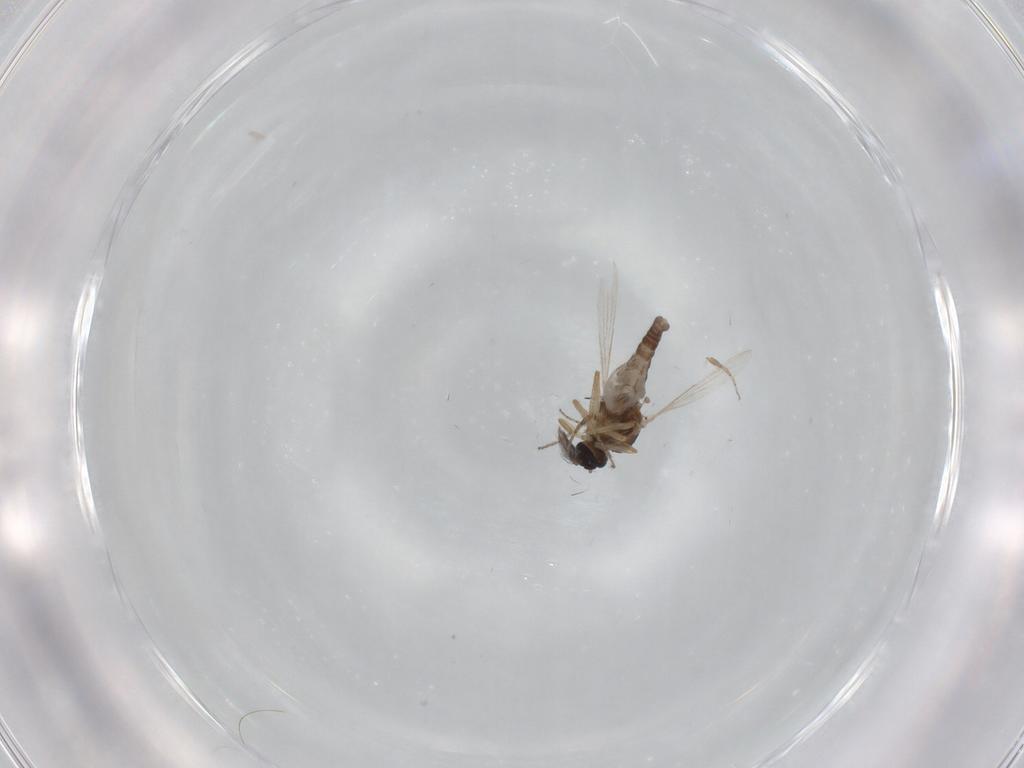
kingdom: Animalia
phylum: Arthropoda
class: Insecta
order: Diptera
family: Ceratopogonidae
